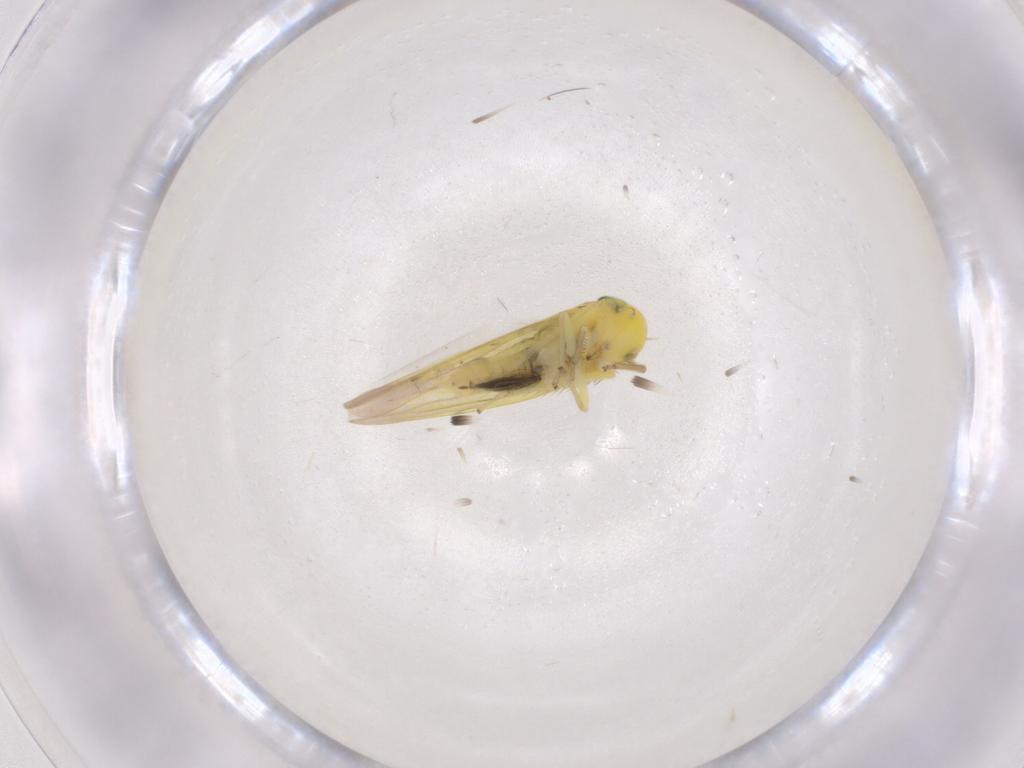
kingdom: Animalia
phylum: Arthropoda
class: Insecta
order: Hemiptera
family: Cicadellidae
